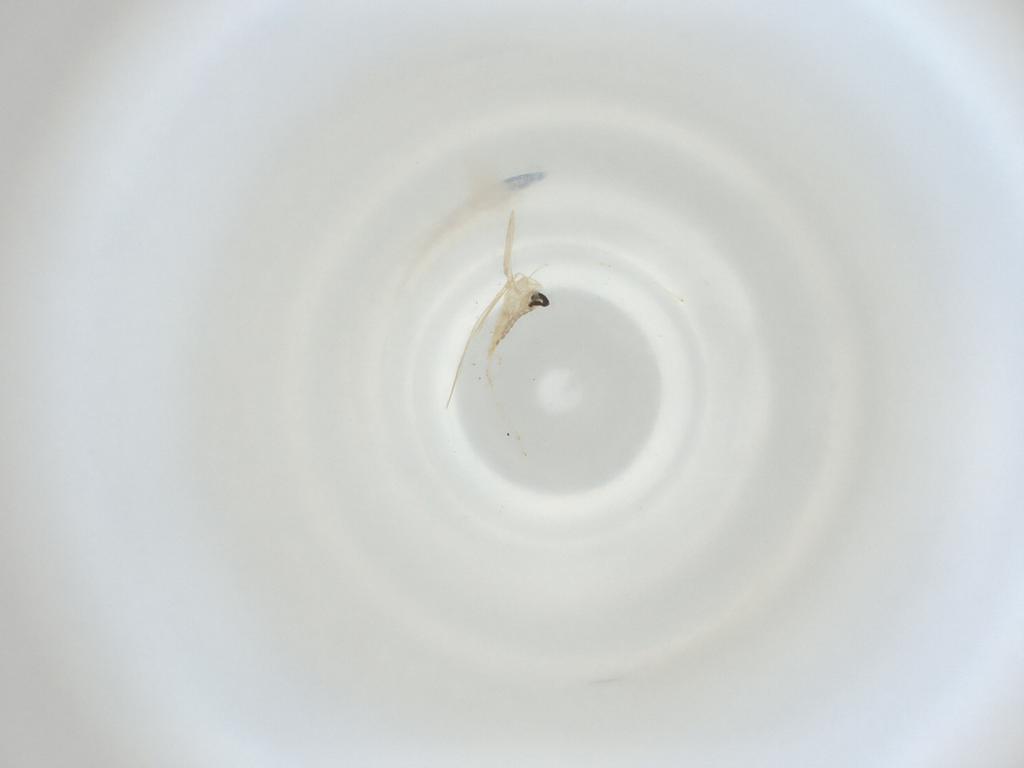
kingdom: Animalia
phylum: Arthropoda
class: Insecta
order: Diptera
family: Cecidomyiidae
